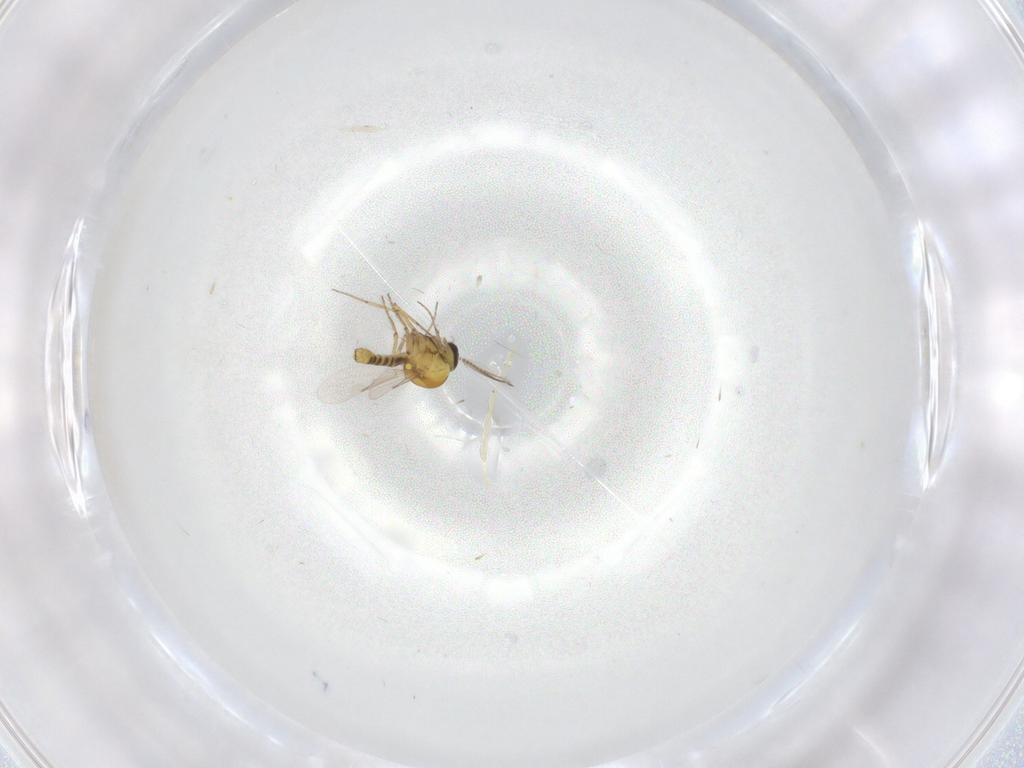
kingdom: Animalia
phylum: Arthropoda
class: Insecta
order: Diptera
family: Ceratopogonidae
